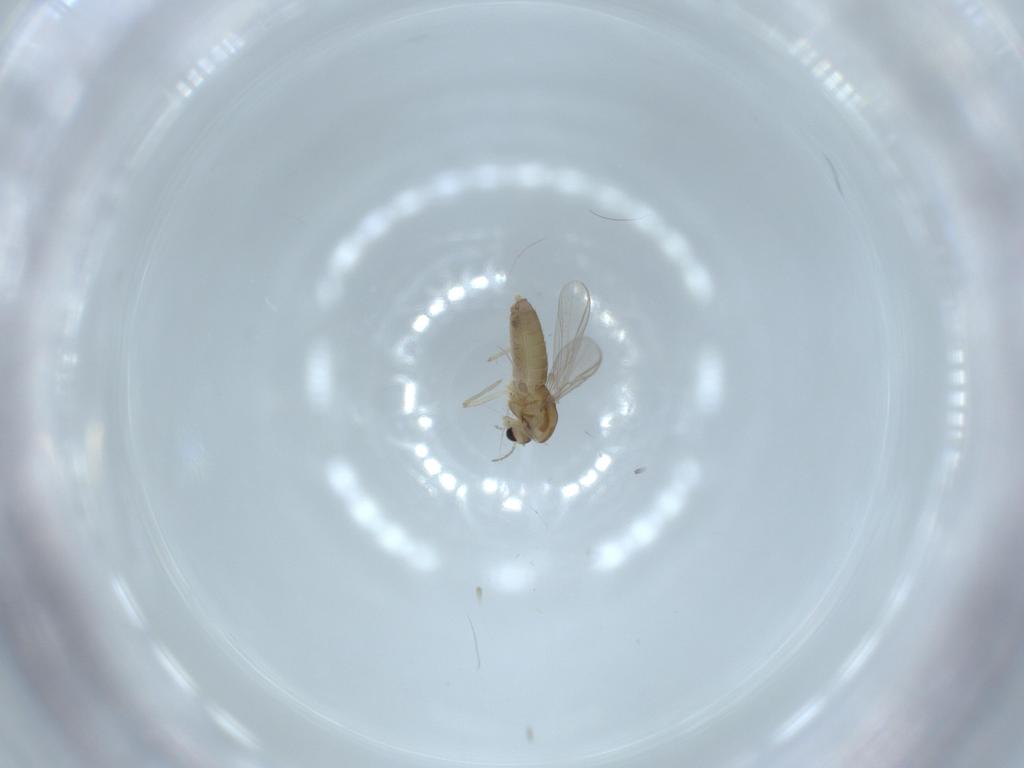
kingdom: Animalia
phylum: Arthropoda
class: Insecta
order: Diptera
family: Chironomidae
